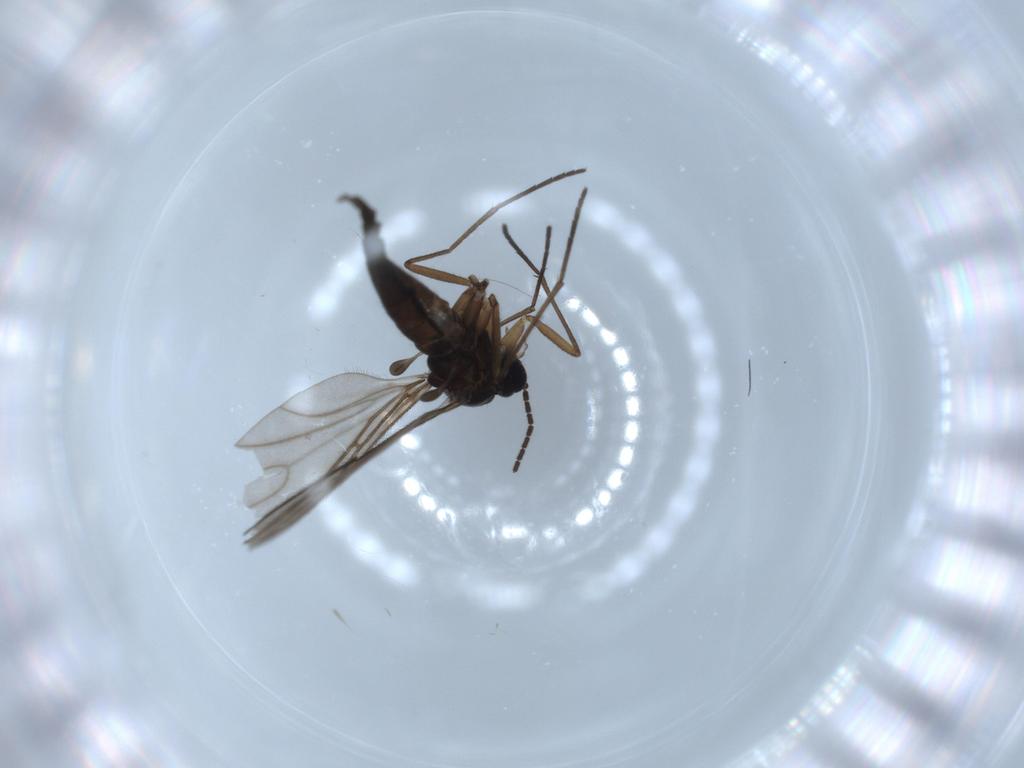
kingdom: Animalia
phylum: Arthropoda
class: Insecta
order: Diptera
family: Sciaridae
